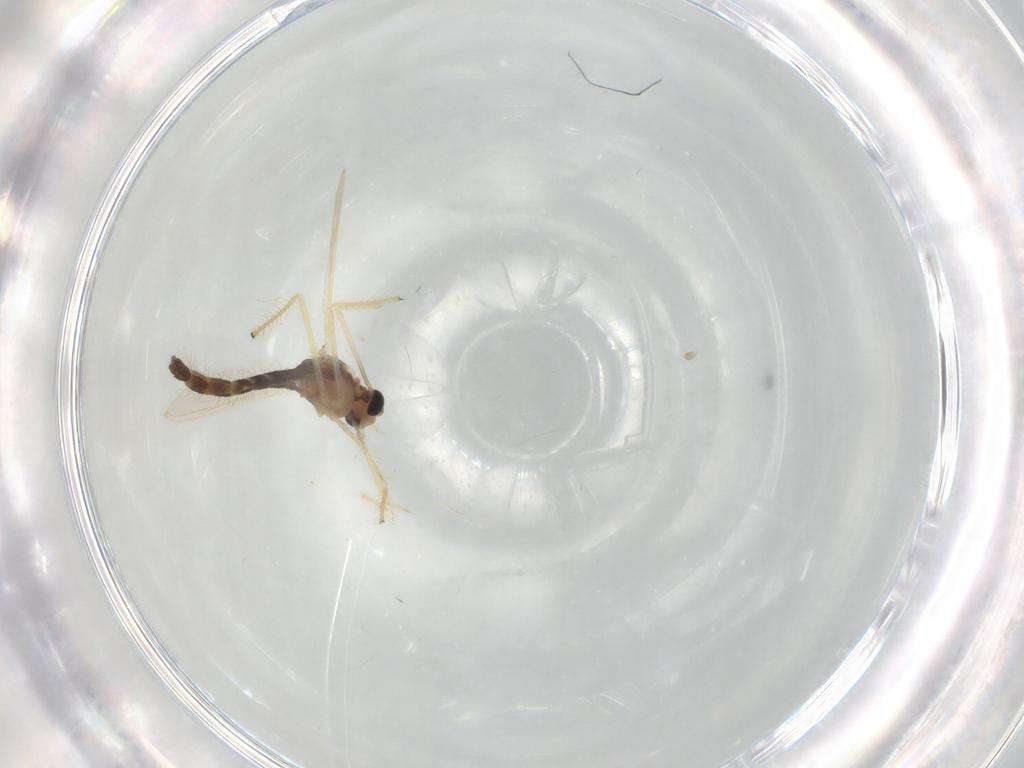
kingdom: Animalia
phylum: Arthropoda
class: Insecta
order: Diptera
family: Chironomidae
